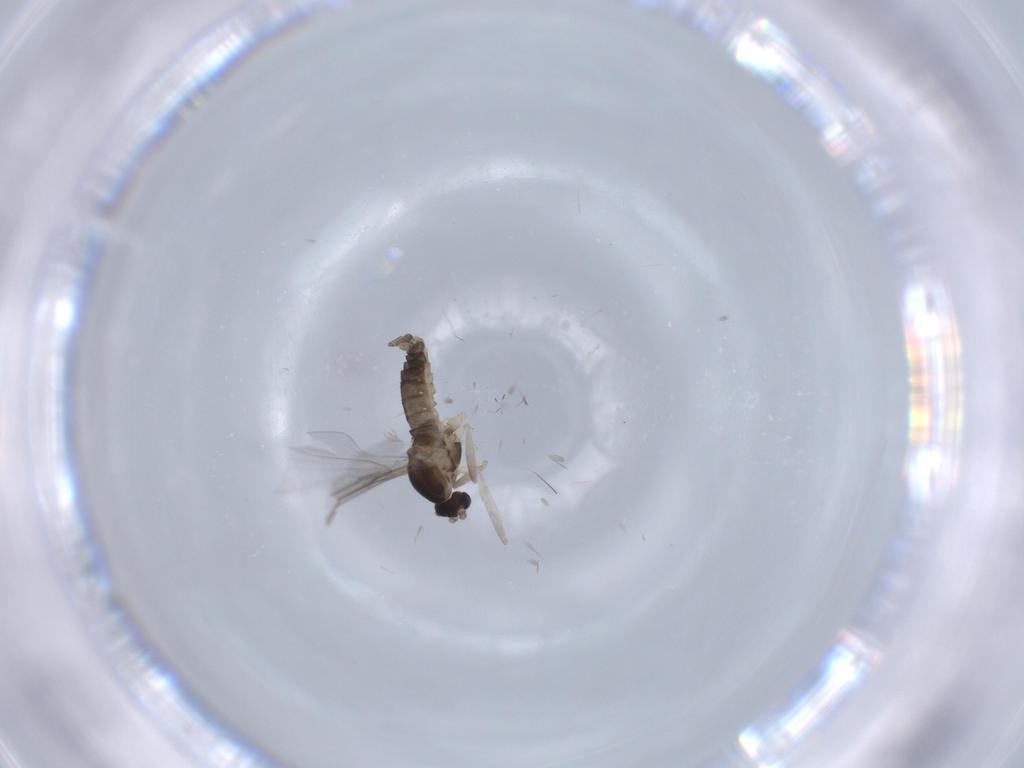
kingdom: Animalia
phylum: Arthropoda
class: Insecta
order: Diptera
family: Cecidomyiidae
